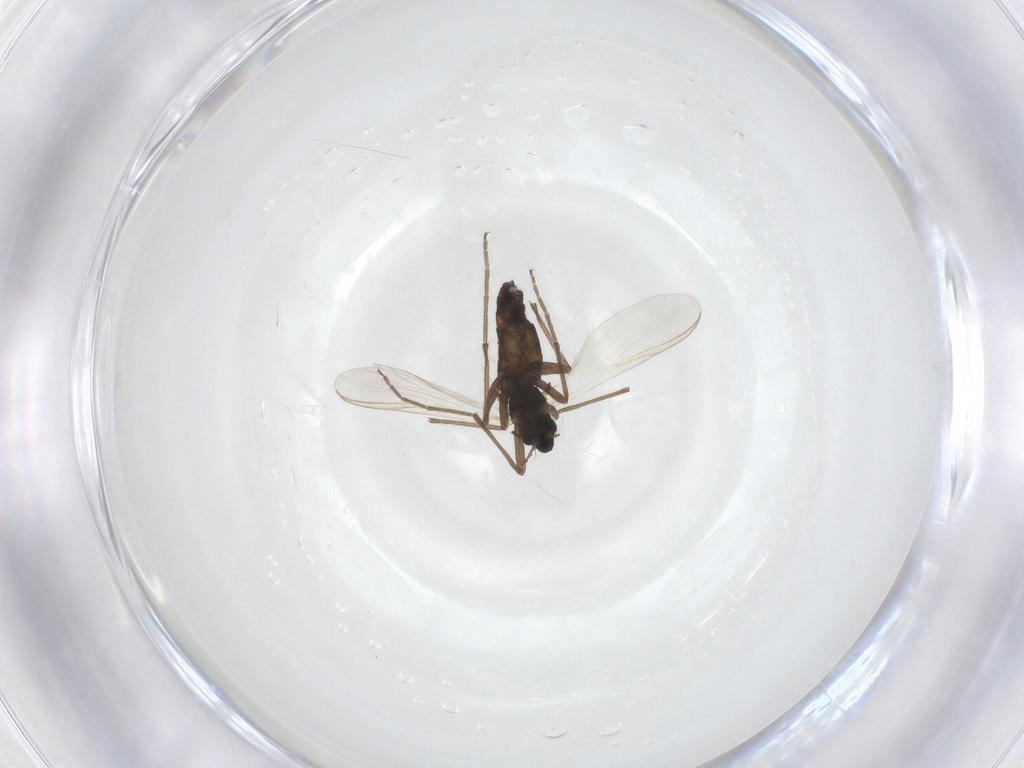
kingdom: Animalia
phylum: Arthropoda
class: Insecta
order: Diptera
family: Chironomidae
